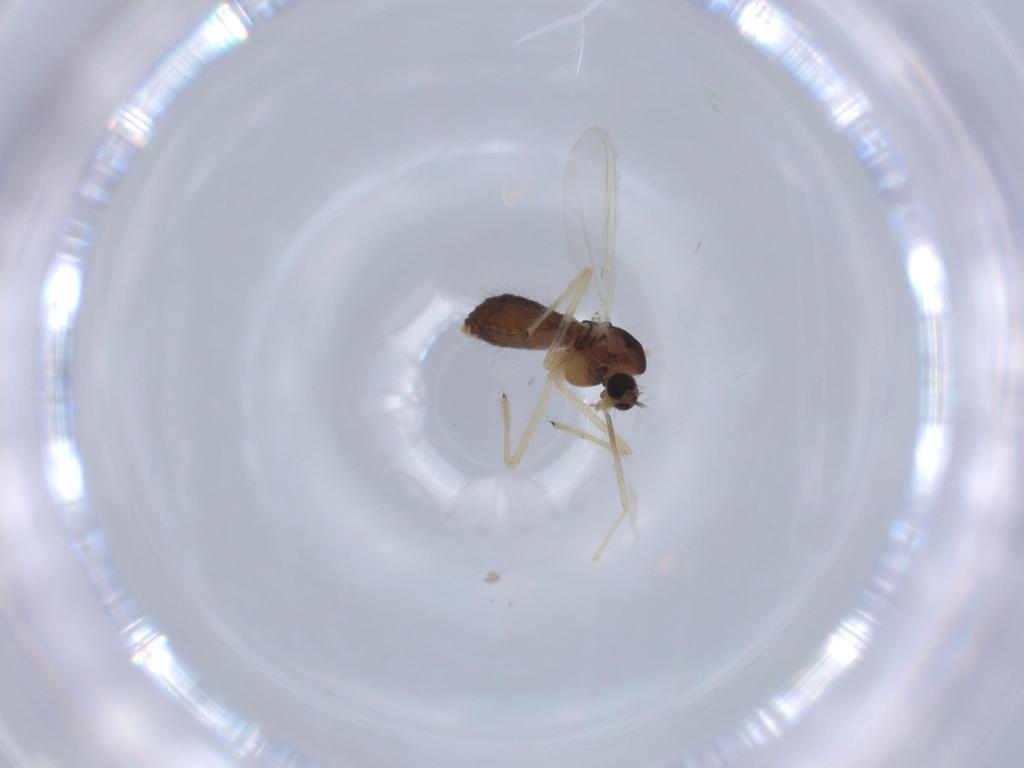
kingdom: Animalia
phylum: Arthropoda
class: Insecta
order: Diptera
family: Chironomidae
